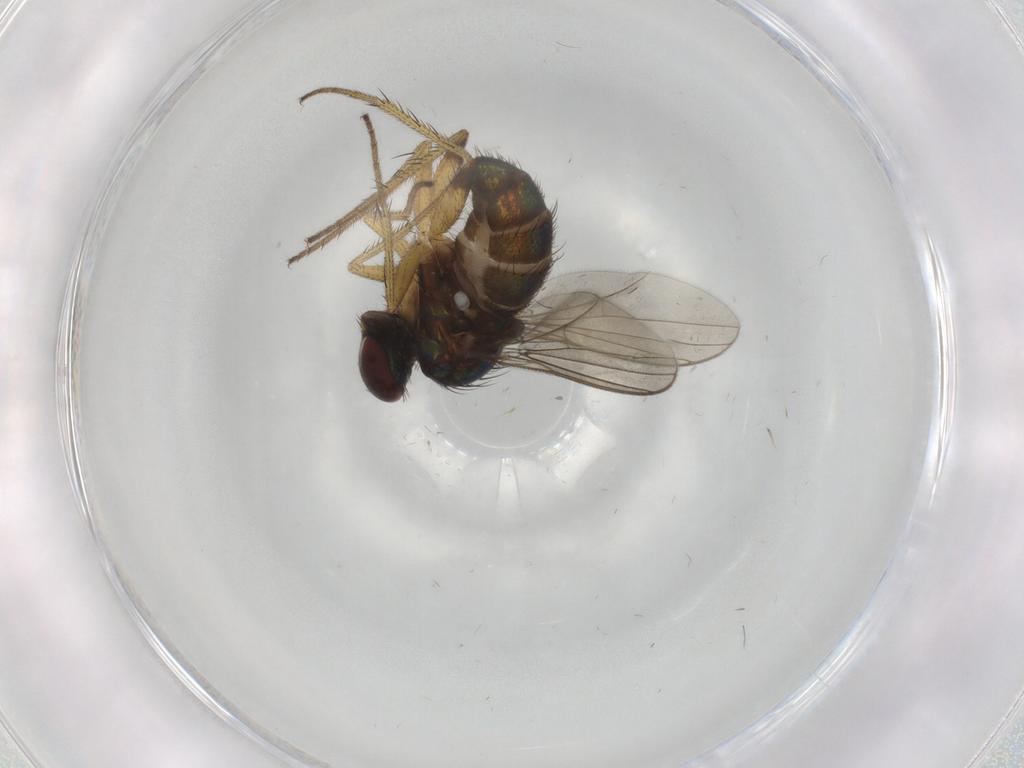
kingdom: Animalia
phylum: Arthropoda
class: Insecta
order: Diptera
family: Dolichopodidae
